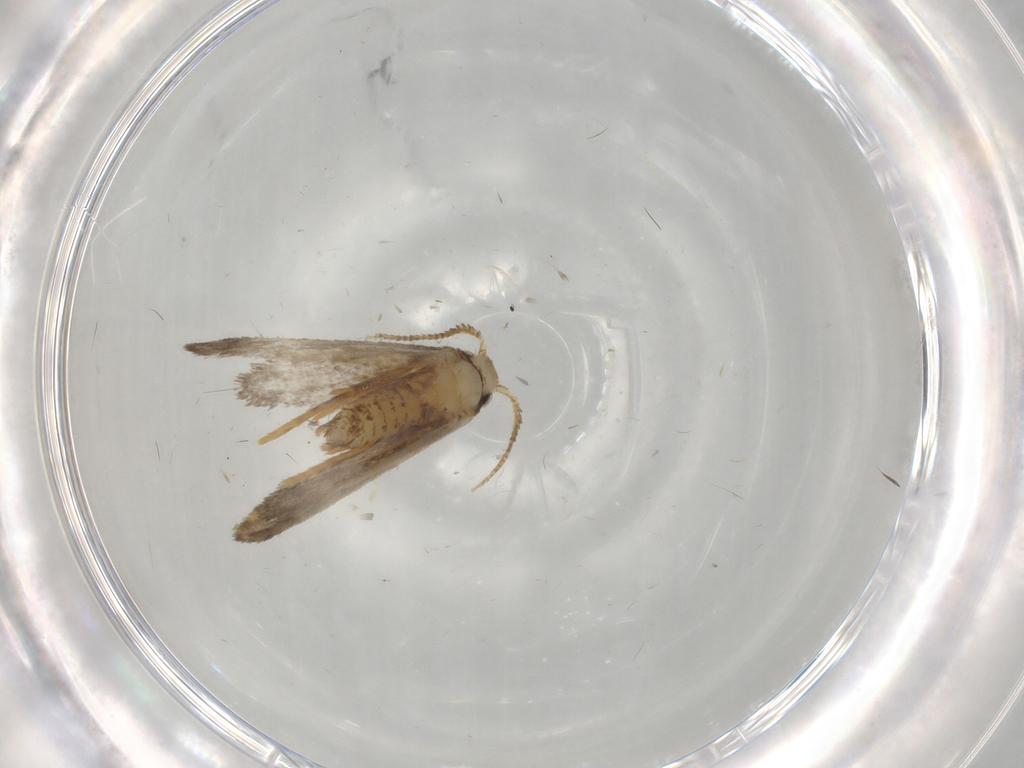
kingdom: Animalia
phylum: Arthropoda
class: Insecta
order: Lepidoptera
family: Psychidae
